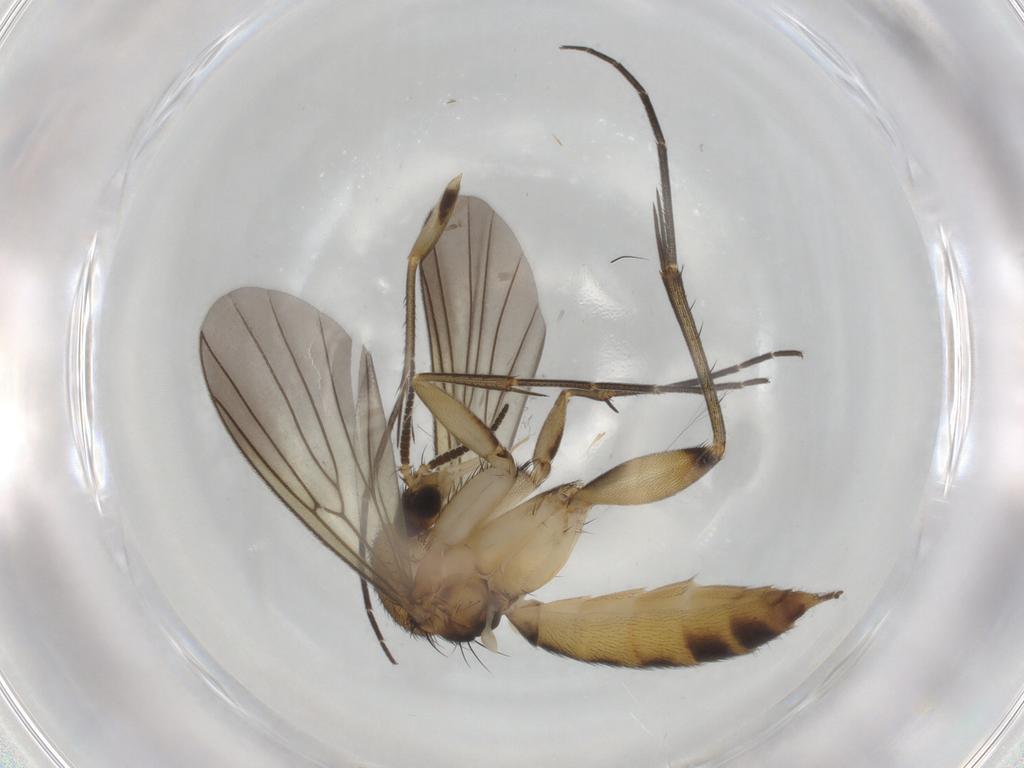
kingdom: Animalia
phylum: Arthropoda
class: Insecta
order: Diptera
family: Mycetophilidae
